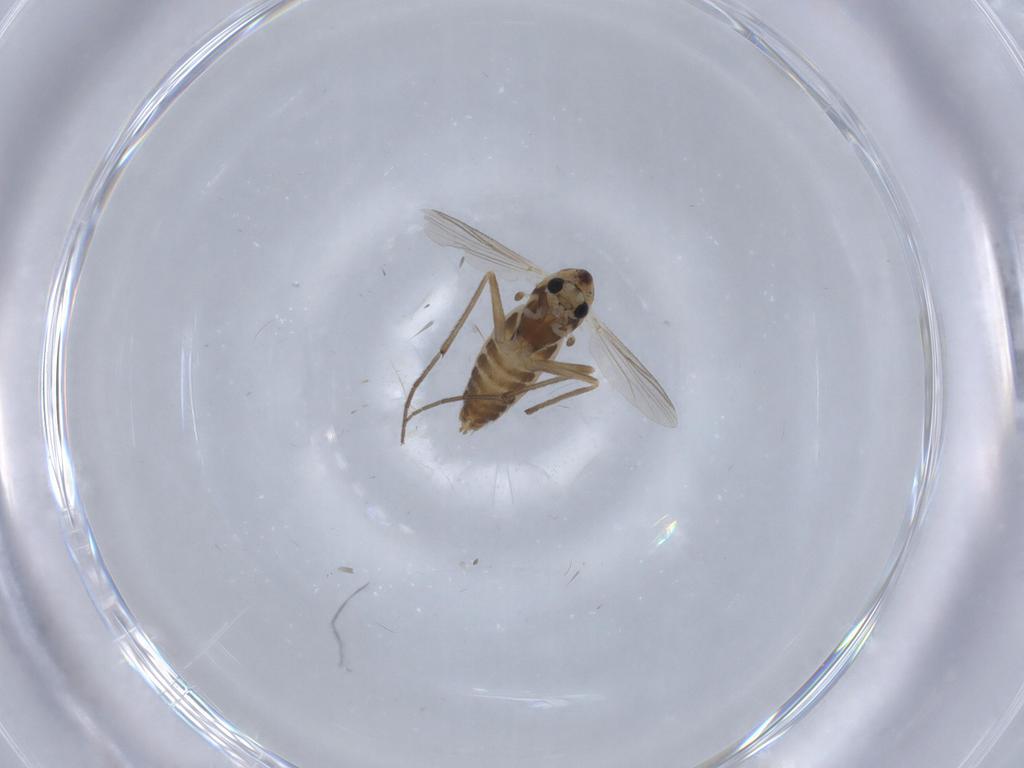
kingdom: Animalia
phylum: Arthropoda
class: Insecta
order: Diptera
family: Chironomidae
